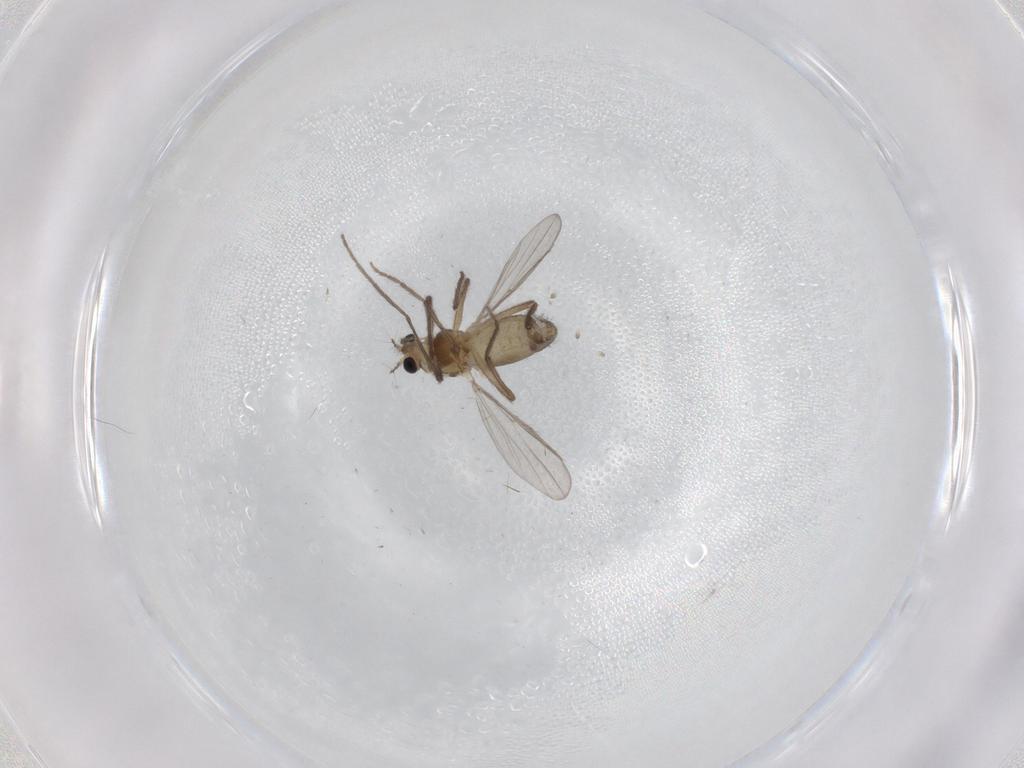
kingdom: Animalia
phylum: Arthropoda
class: Insecta
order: Diptera
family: Chironomidae
